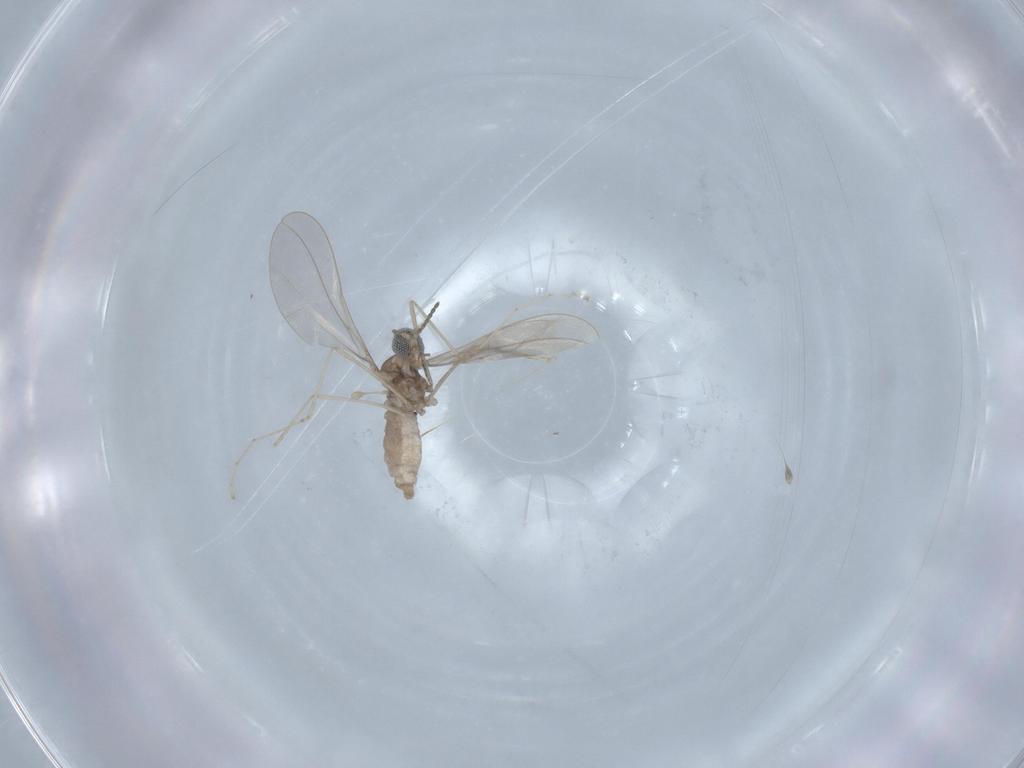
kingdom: Animalia
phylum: Arthropoda
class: Insecta
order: Diptera
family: Cecidomyiidae
